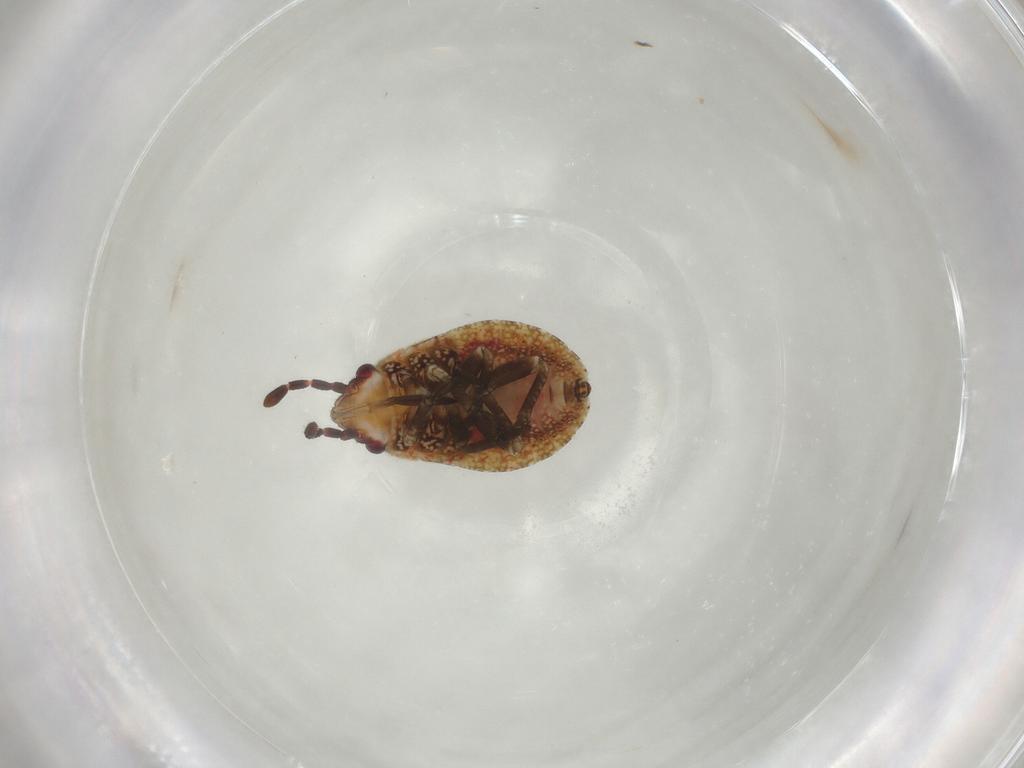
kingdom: Animalia
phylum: Arthropoda
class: Insecta
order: Hemiptera
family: Lygaeidae
